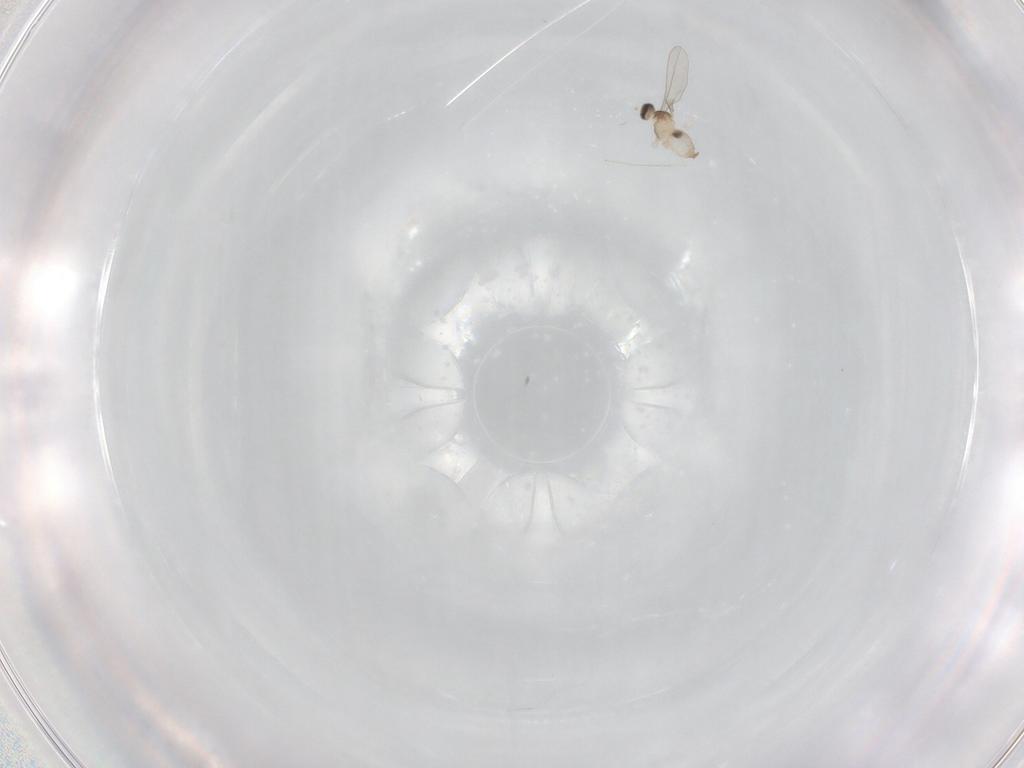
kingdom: Animalia
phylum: Arthropoda
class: Insecta
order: Diptera
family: Cecidomyiidae
